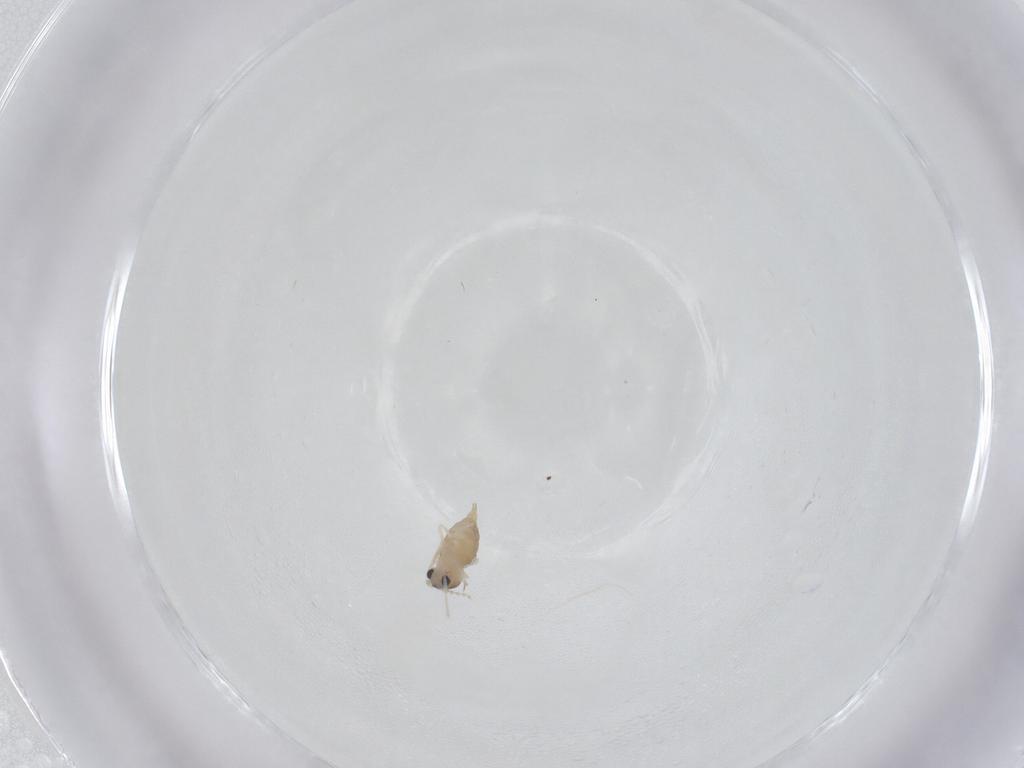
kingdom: Animalia
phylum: Arthropoda
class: Insecta
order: Diptera
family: Cecidomyiidae
